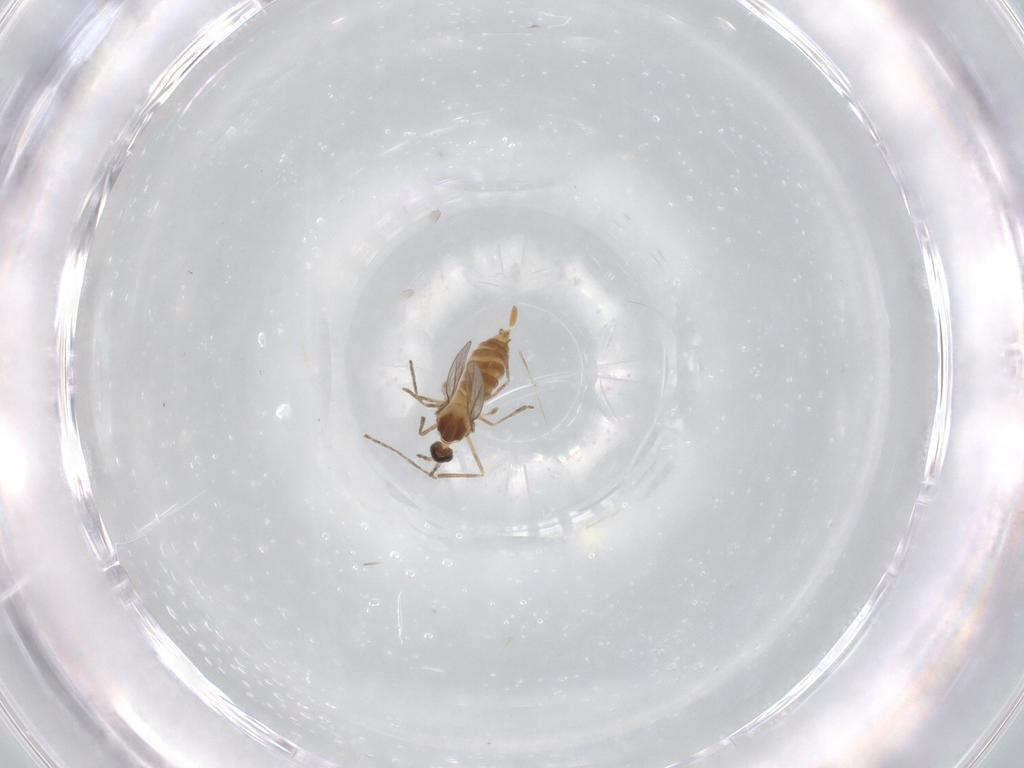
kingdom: Animalia
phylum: Arthropoda
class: Insecta
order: Diptera
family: Cecidomyiidae
